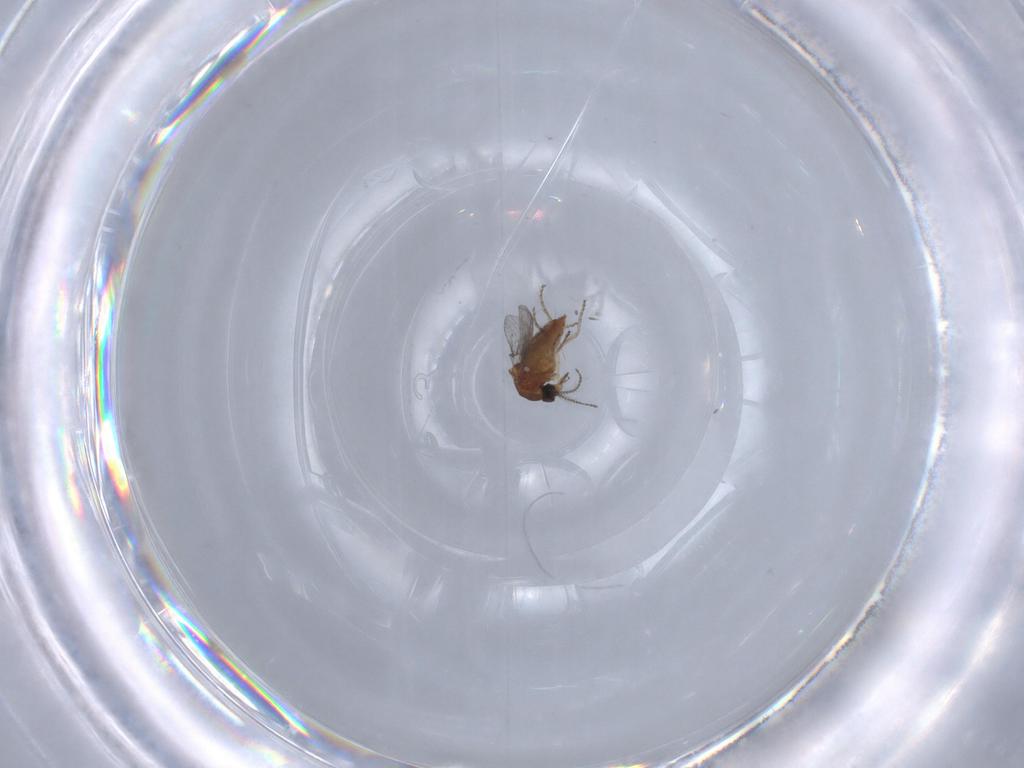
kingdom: Animalia
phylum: Arthropoda
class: Insecta
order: Diptera
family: Ceratopogonidae
